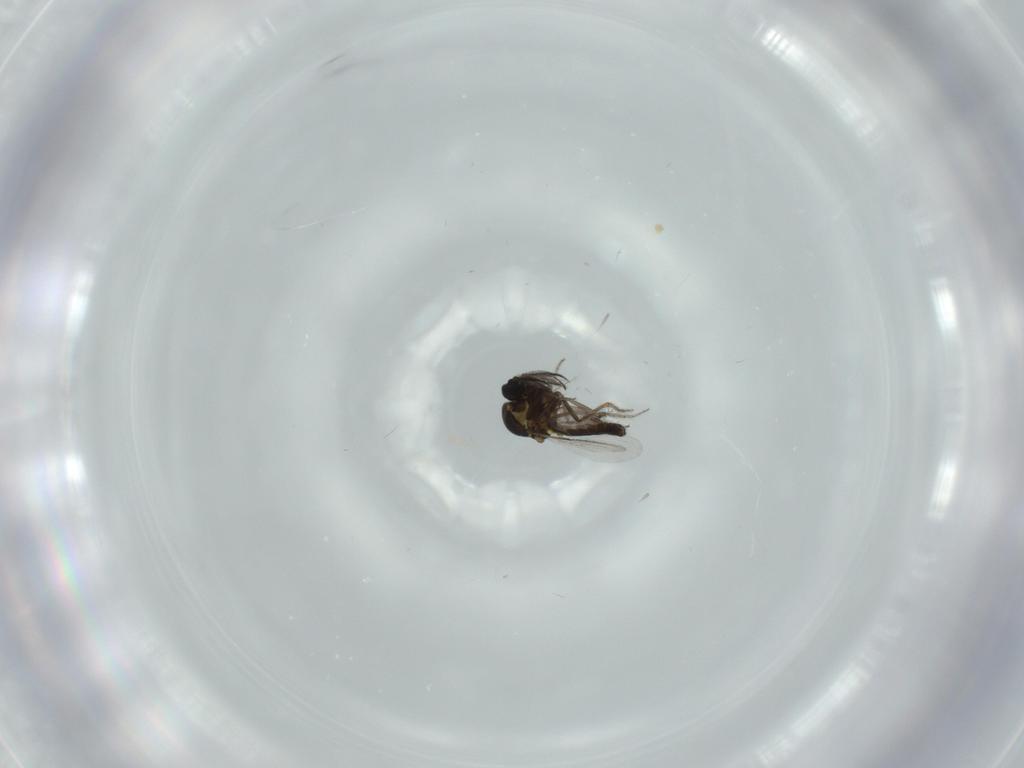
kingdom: Animalia
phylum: Arthropoda
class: Insecta
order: Diptera
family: Ceratopogonidae
